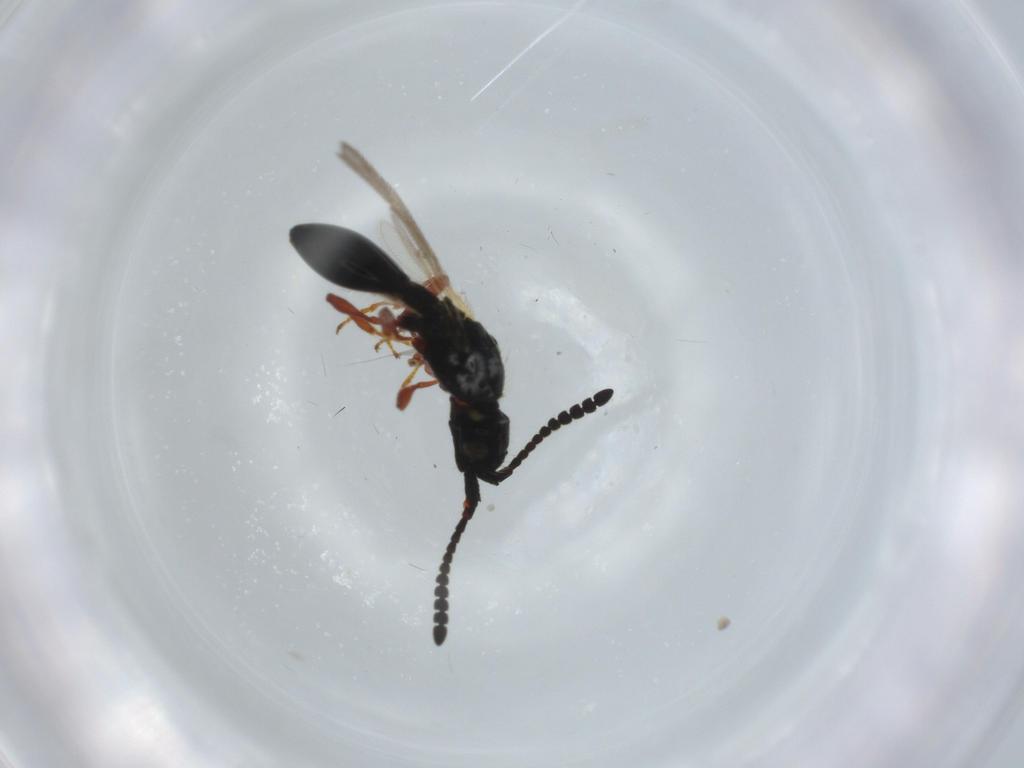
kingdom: Animalia
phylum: Arthropoda
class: Insecta
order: Hymenoptera
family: Diapriidae
